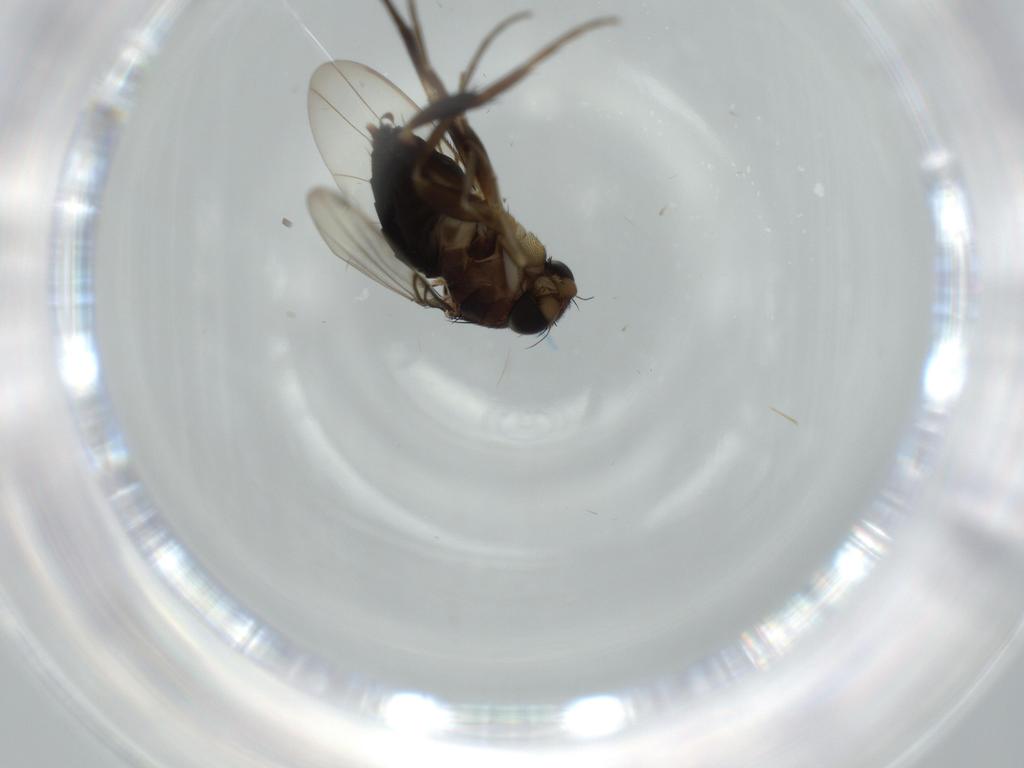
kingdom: Animalia
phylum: Arthropoda
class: Insecta
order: Diptera
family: Phoridae
